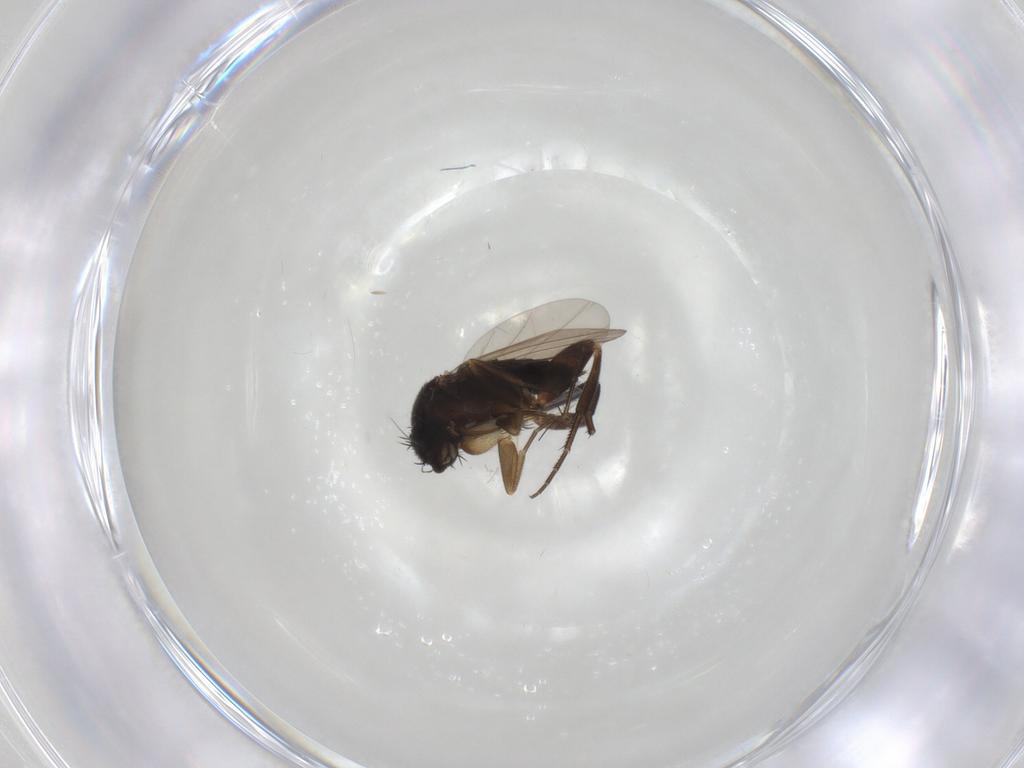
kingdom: Animalia
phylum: Arthropoda
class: Insecta
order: Diptera
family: Phoridae
